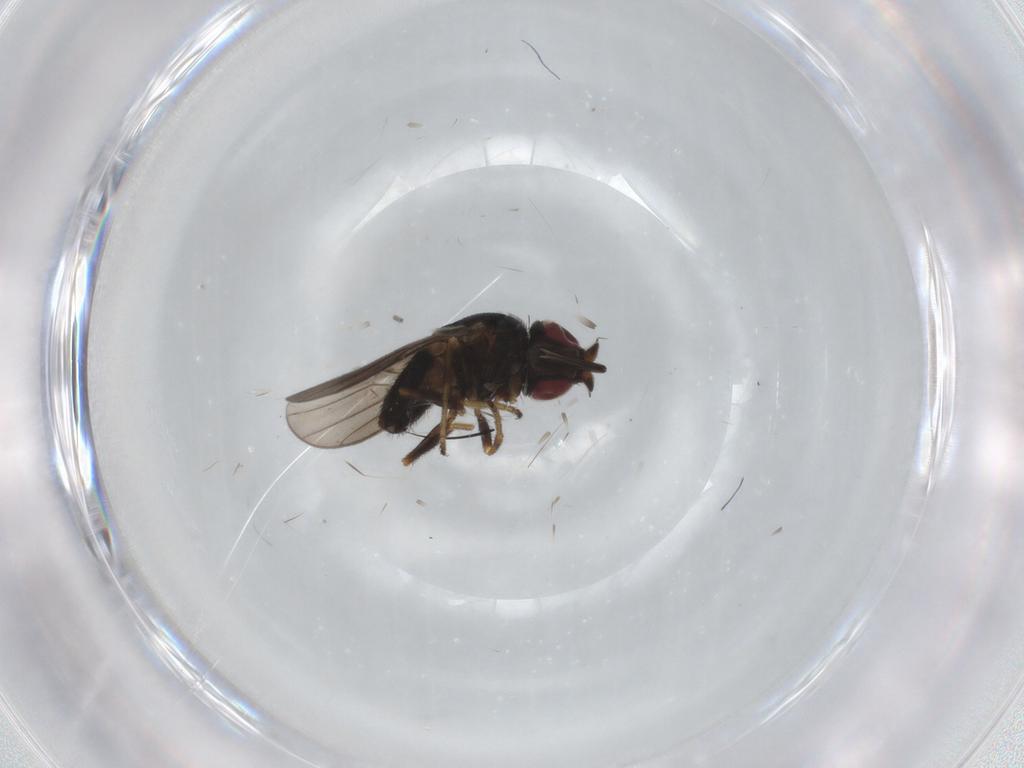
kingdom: Animalia
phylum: Arthropoda
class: Insecta
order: Diptera
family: Chloropidae
